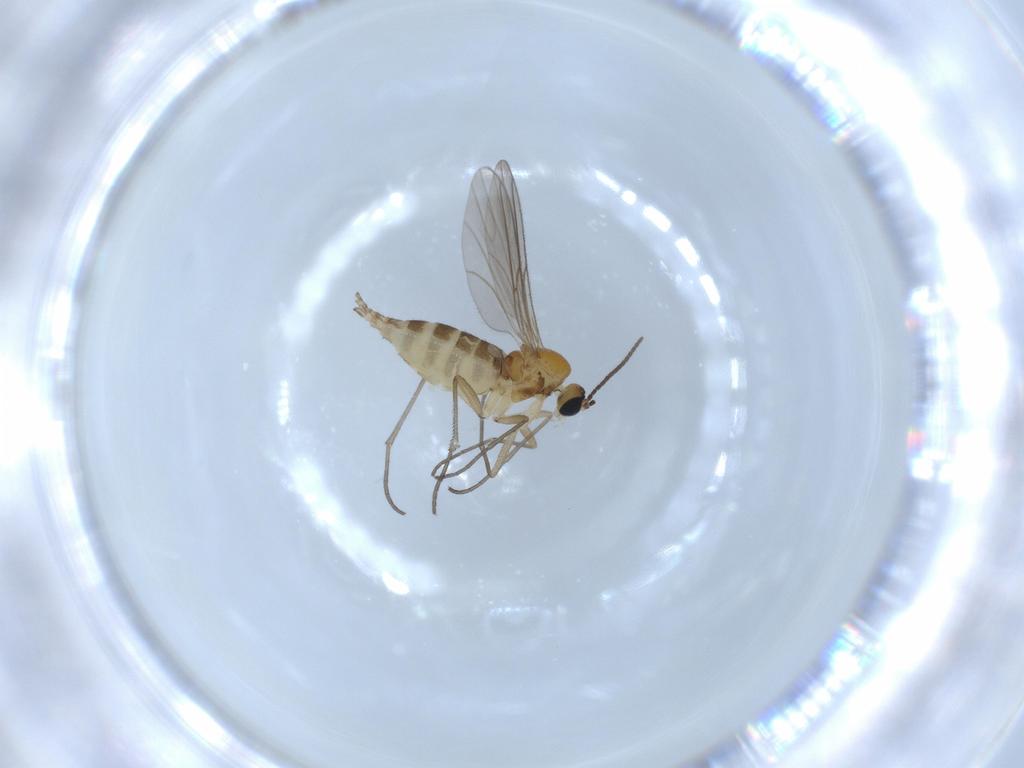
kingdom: Animalia
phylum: Arthropoda
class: Insecta
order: Diptera
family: Sciaridae
